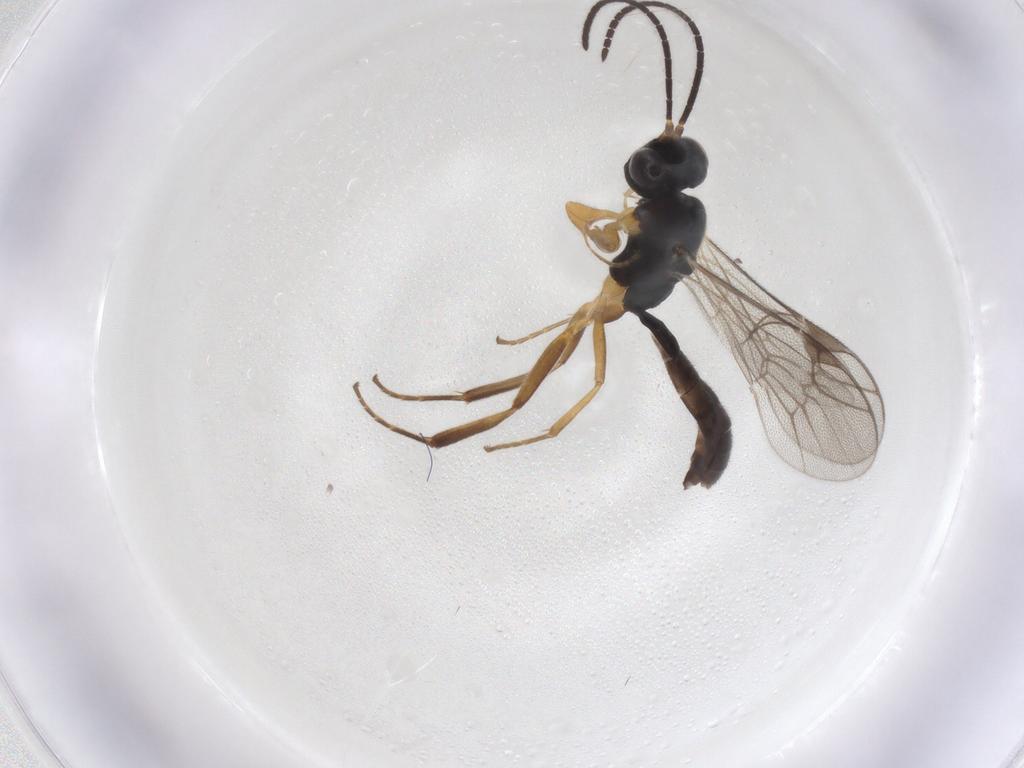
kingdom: Animalia
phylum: Arthropoda
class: Insecta
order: Hymenoptera
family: Ichneumonidae
